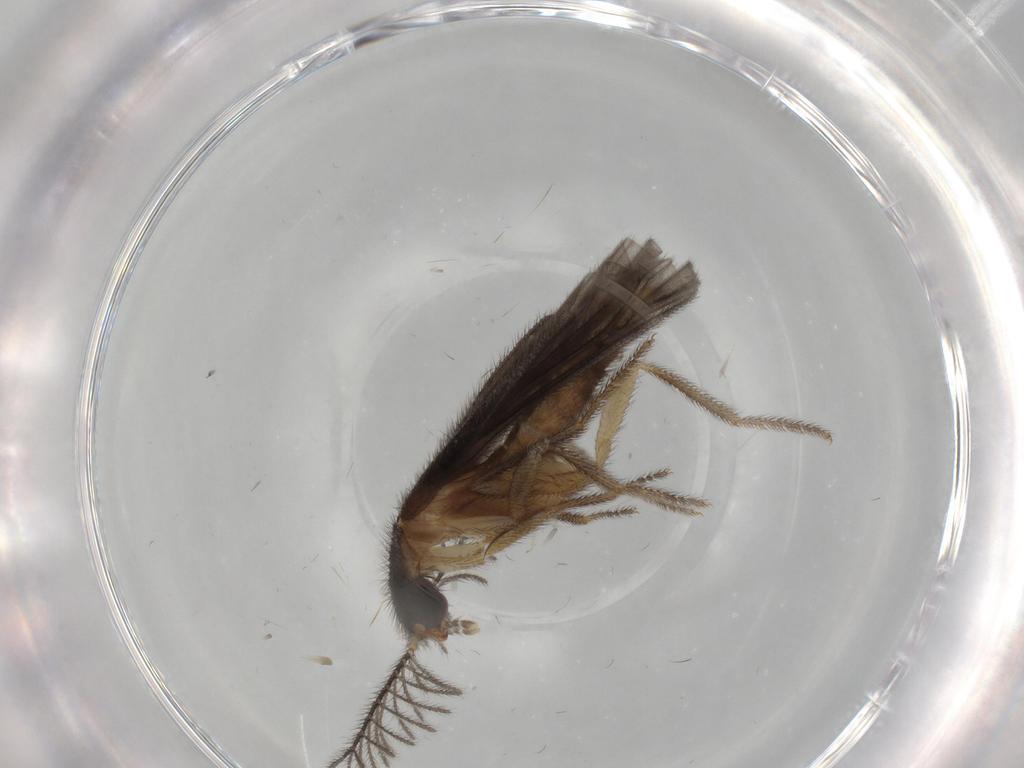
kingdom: Animalia
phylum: Arthropoda
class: Insecta
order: Coleoptera
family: Phengodidae
